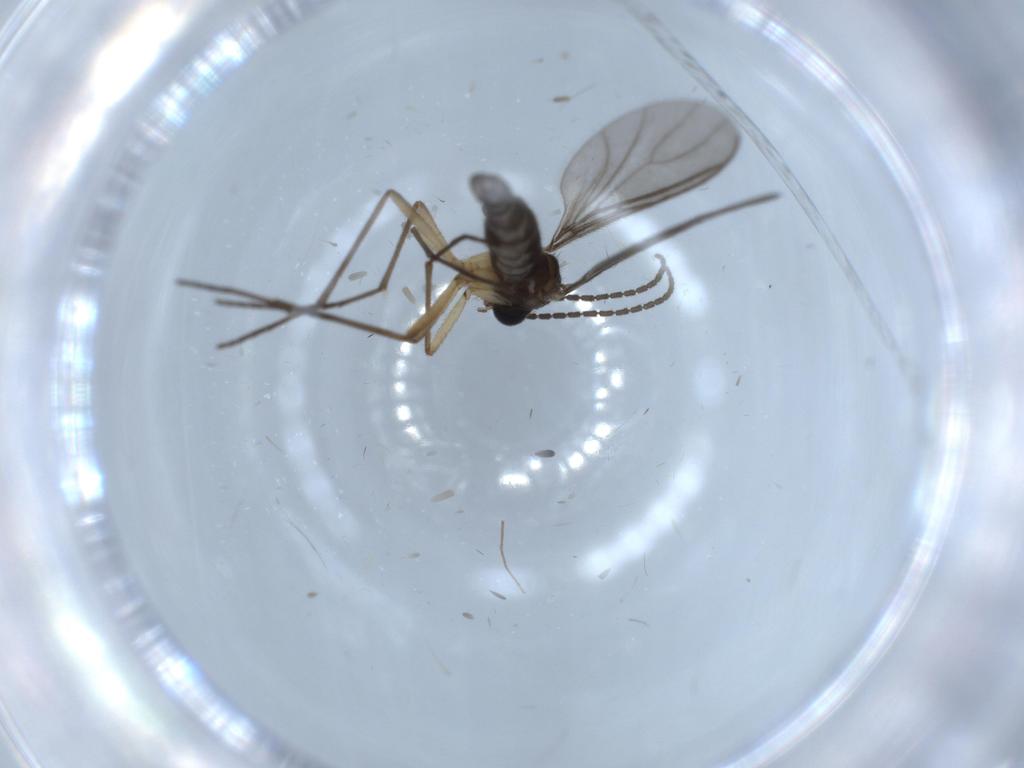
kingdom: Animalia
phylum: Arthropoda
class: Insecta
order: Diptera
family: Sciaridae
